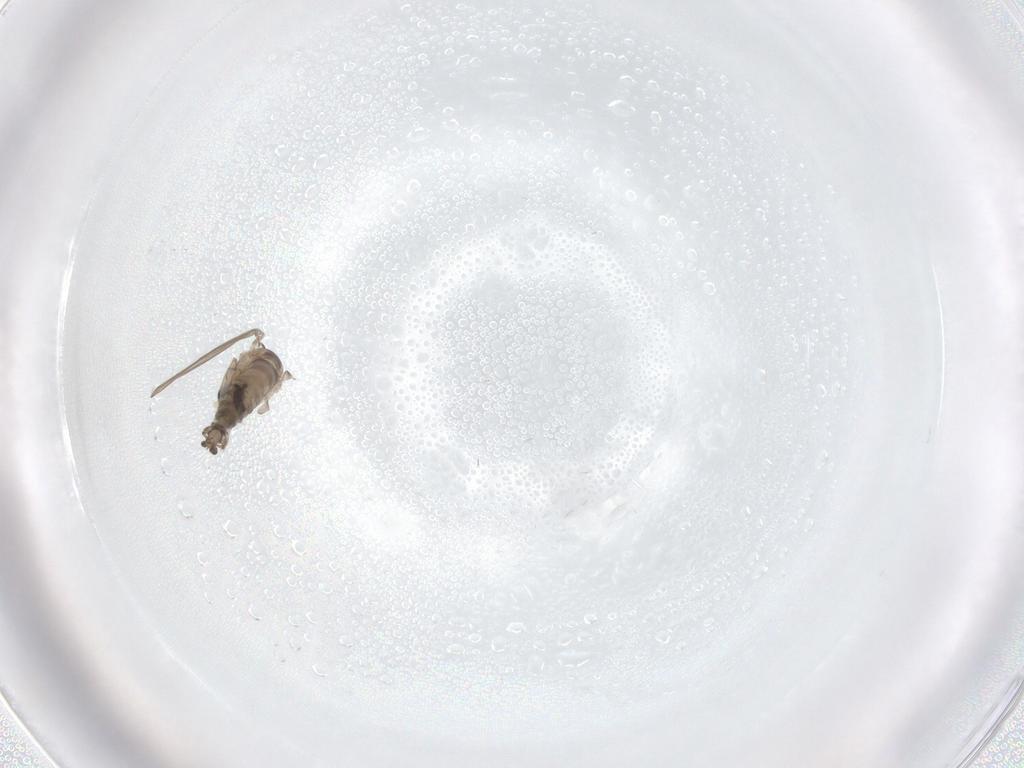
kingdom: Animalia
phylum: Arthropoda
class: Insecta
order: Diptera
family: Psychodidae
